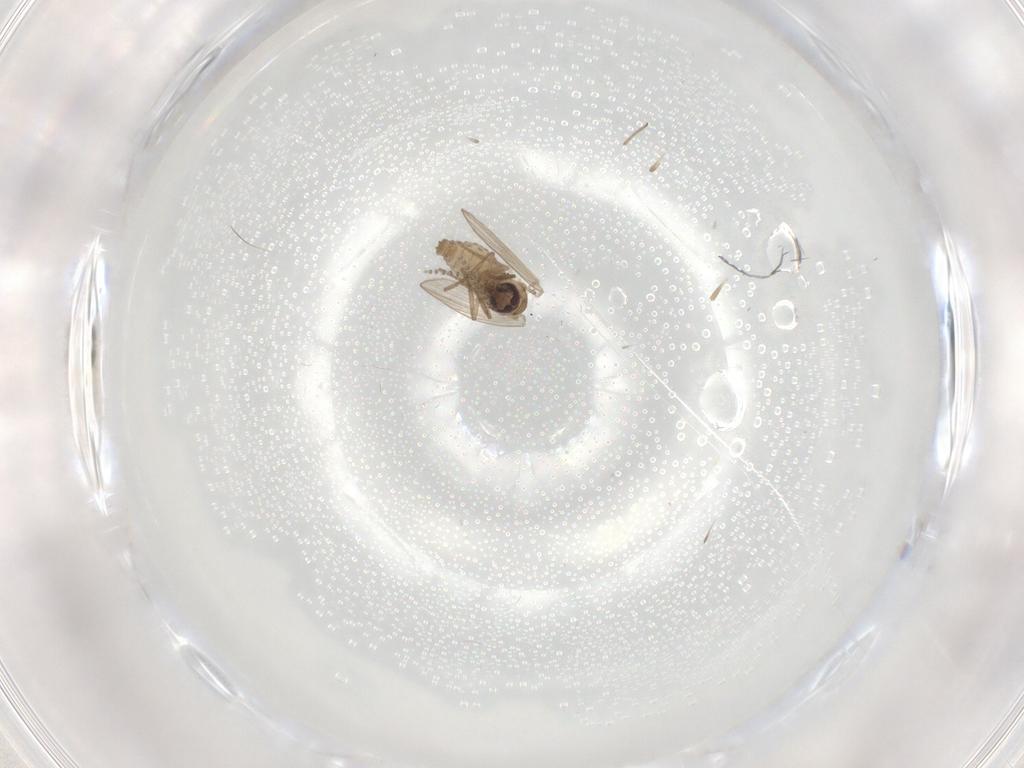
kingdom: Animalia
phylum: Arthropoda
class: Insecta
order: Diptera
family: Psychodidae
